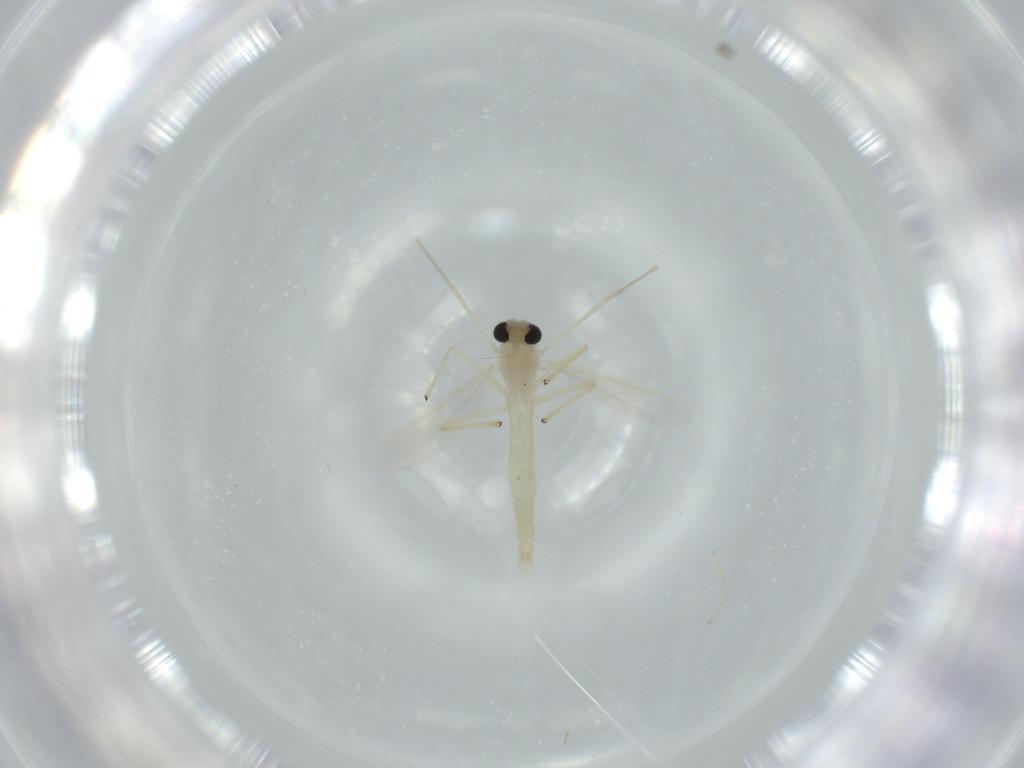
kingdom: Animalia
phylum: Arthropoda
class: Insecta
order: Diptera
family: Chironomidae
